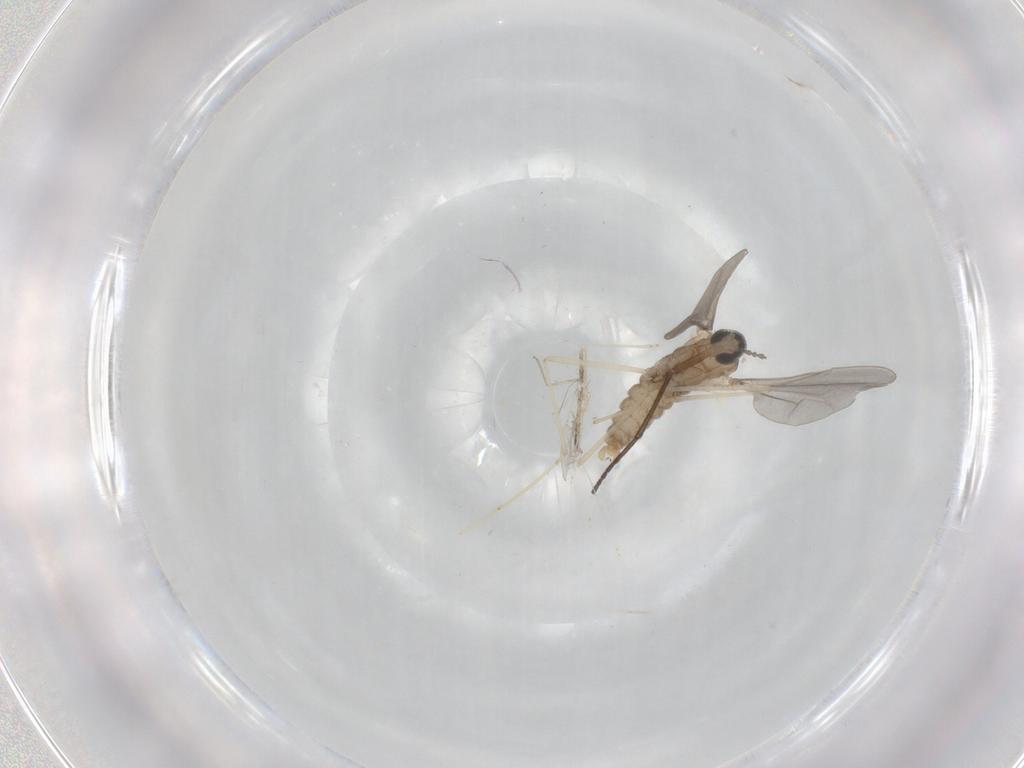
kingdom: Animalia
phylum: Arthropoda
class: Insecta
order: Diptera
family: Cecidomyiidae
